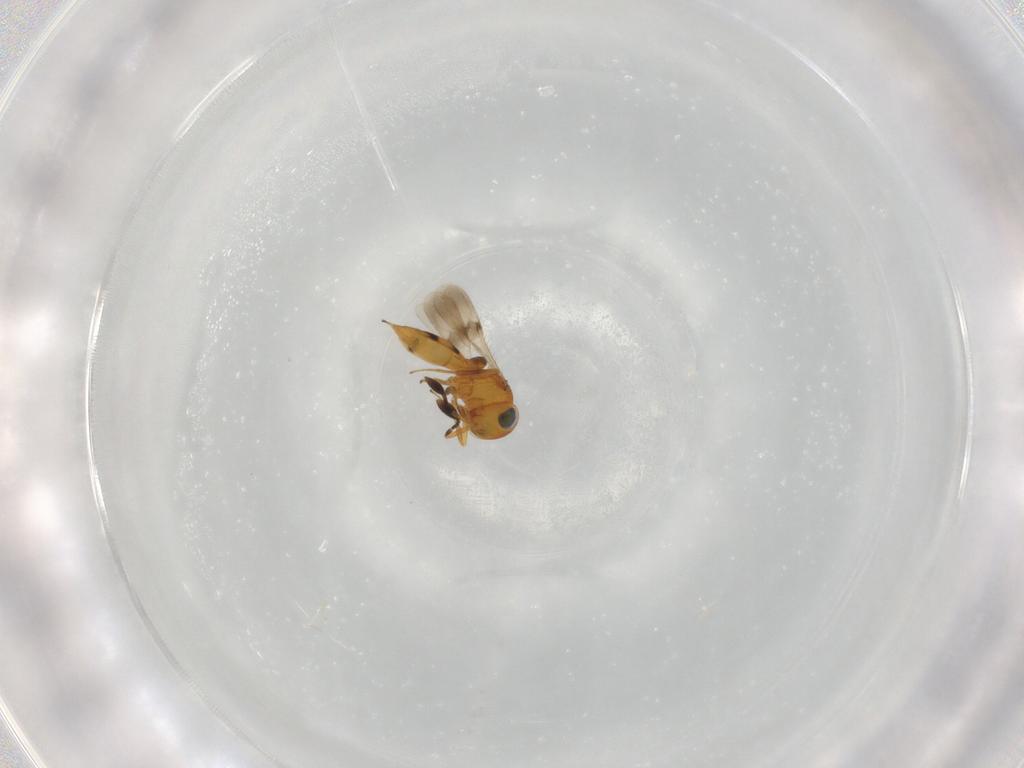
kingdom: Animalia
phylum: Arthropoda
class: Insecta
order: Hymenoptera
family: Scelionidae
